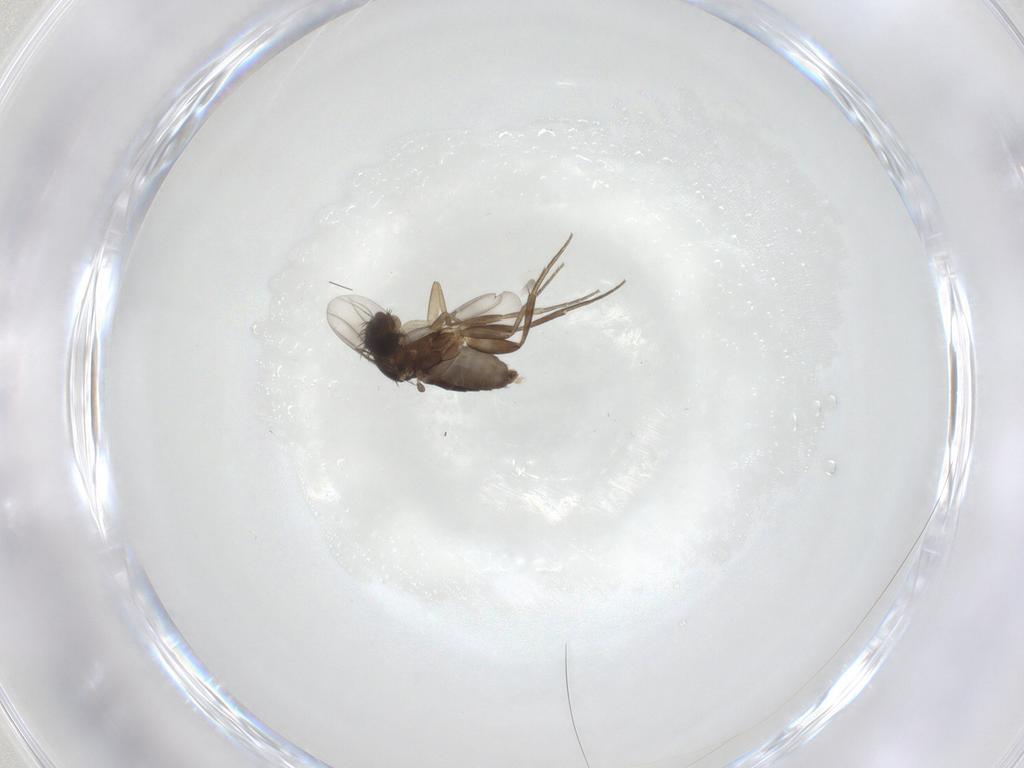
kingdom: Animalia
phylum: Arthropoda
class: Insecta
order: Diptera
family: Phoridae
